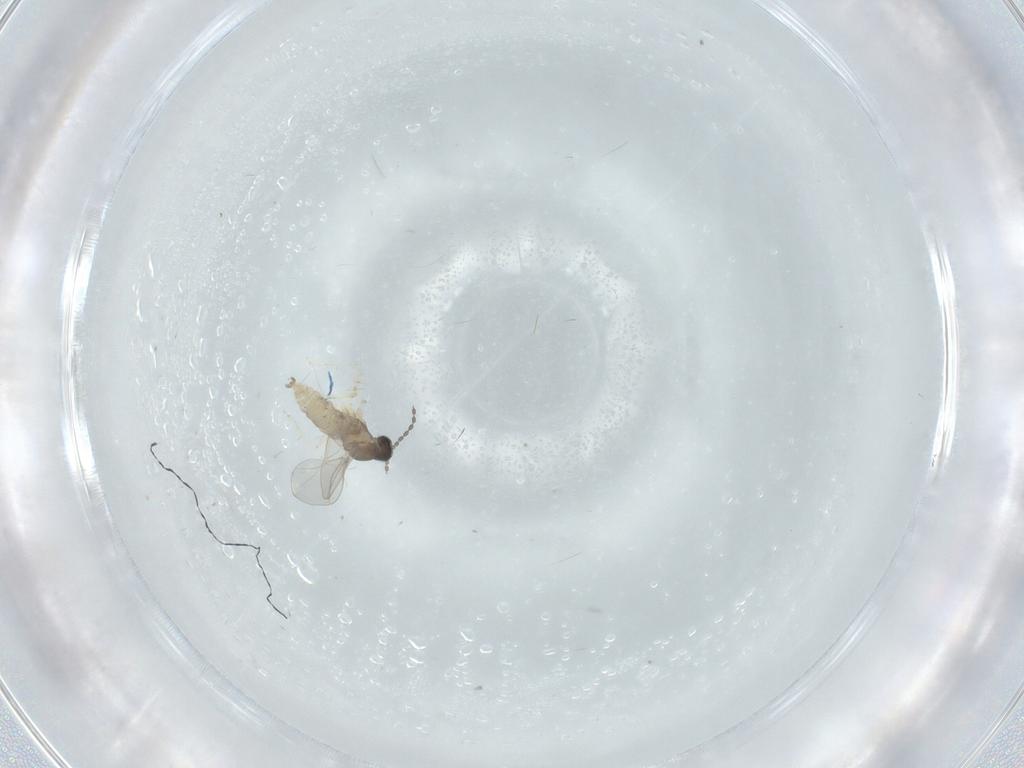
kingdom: Animalia
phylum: Arthropoda
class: Insecta
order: Diptera
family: Cecidomyiidae
